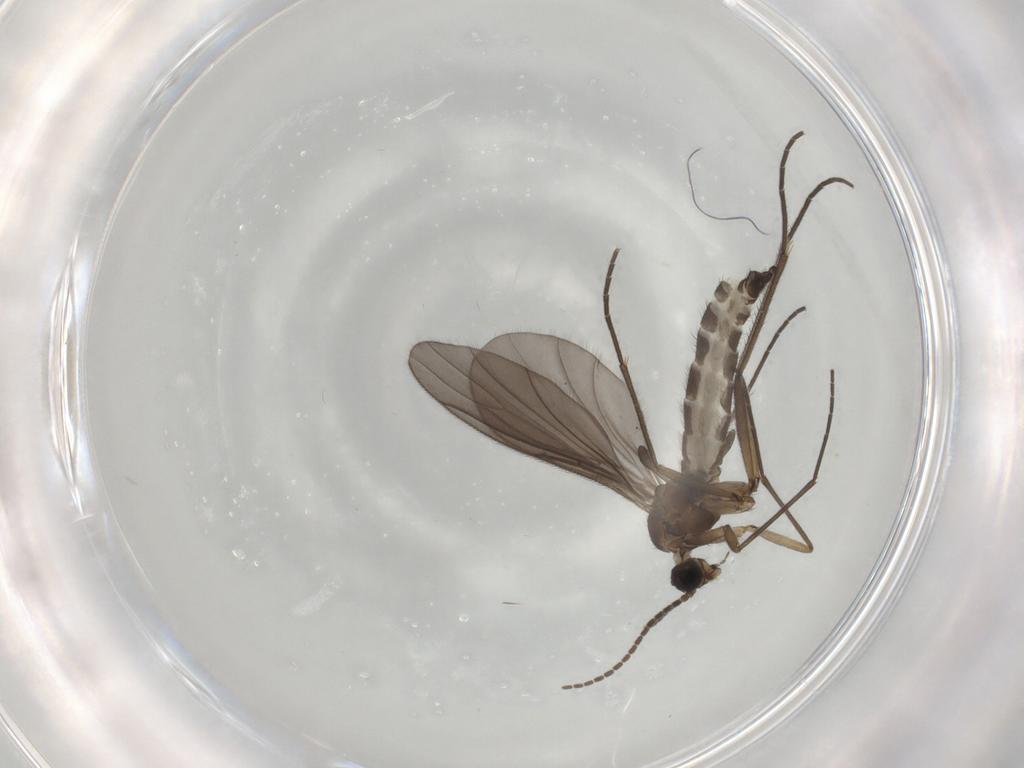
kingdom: Animalia
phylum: Arthropoda
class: Insecta
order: Diptera
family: Sciaridae
